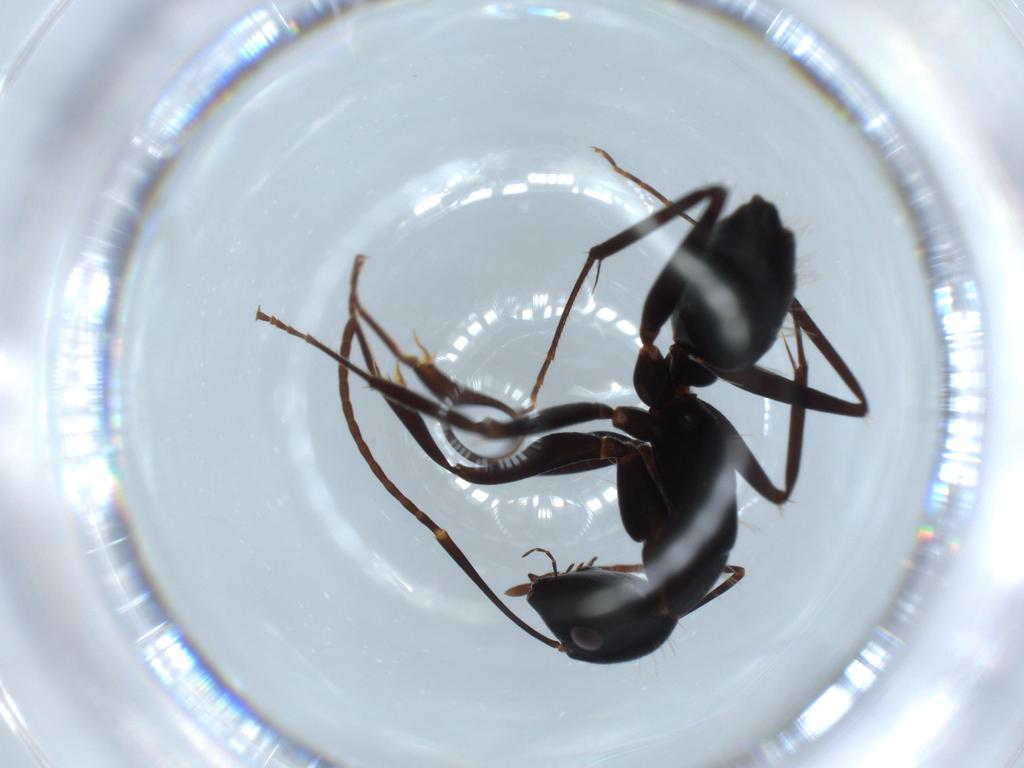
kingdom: Animalia
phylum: Arthropoda
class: Insecta
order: Hymenoptera
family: Formicidae
